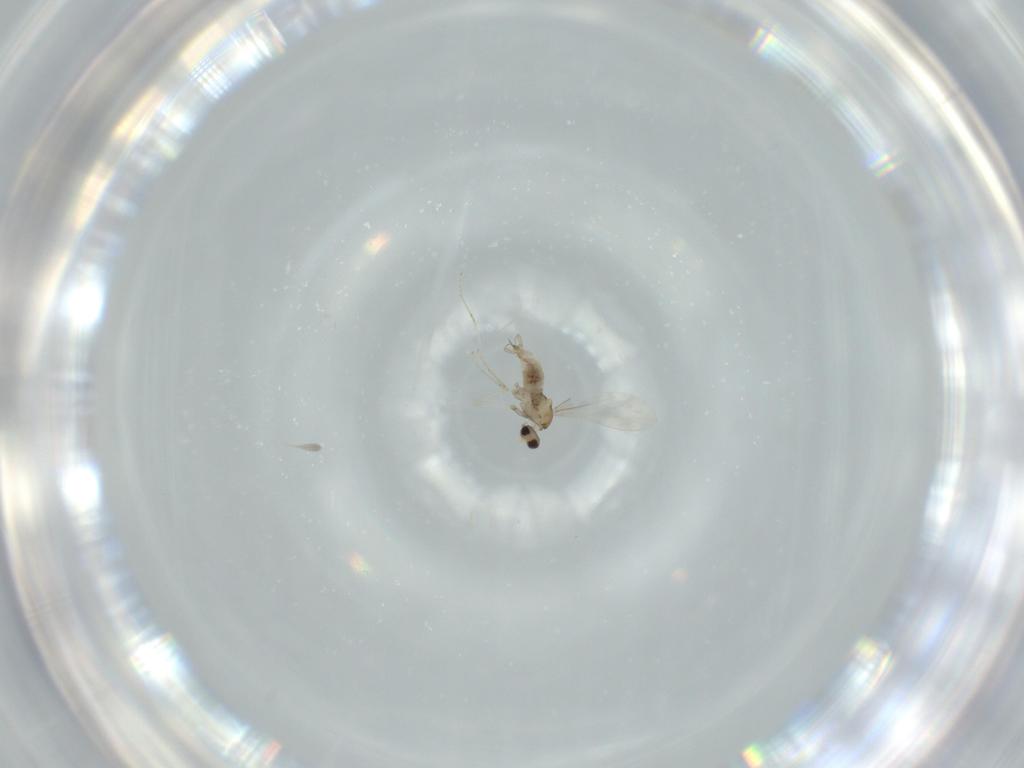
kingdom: Animalia
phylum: Arthropoda
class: Insecta
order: Diptera
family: Cecidomyiidae
